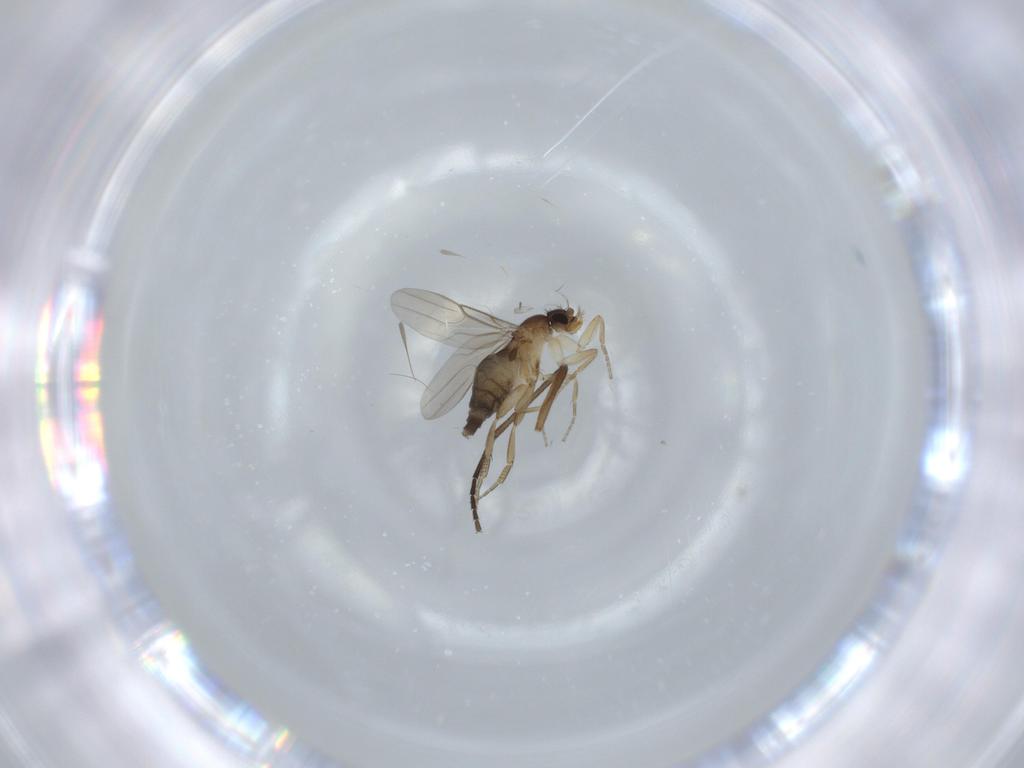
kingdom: Animalia
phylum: Arthropoda
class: Insecta
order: Diptera
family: Phoridae
